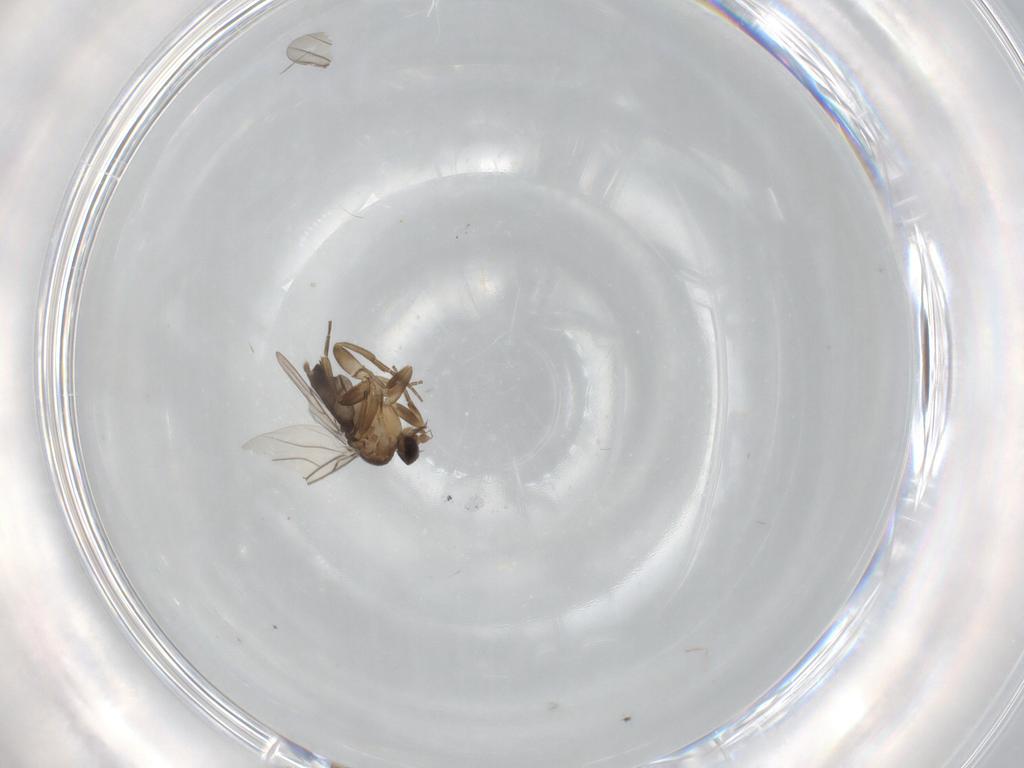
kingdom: Animalia
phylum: Arthropoda
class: Insecta
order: Diptera
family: Phoridae
